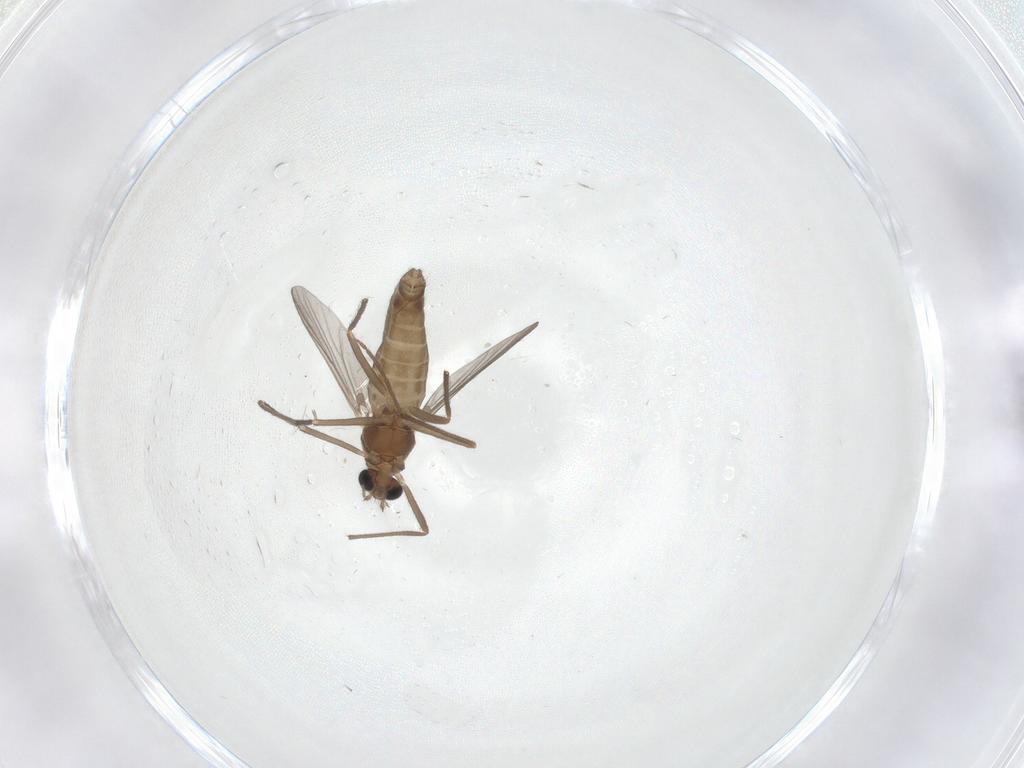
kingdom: Animalia
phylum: Arthropoda
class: Insecta
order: Diptera
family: Chironomidae
